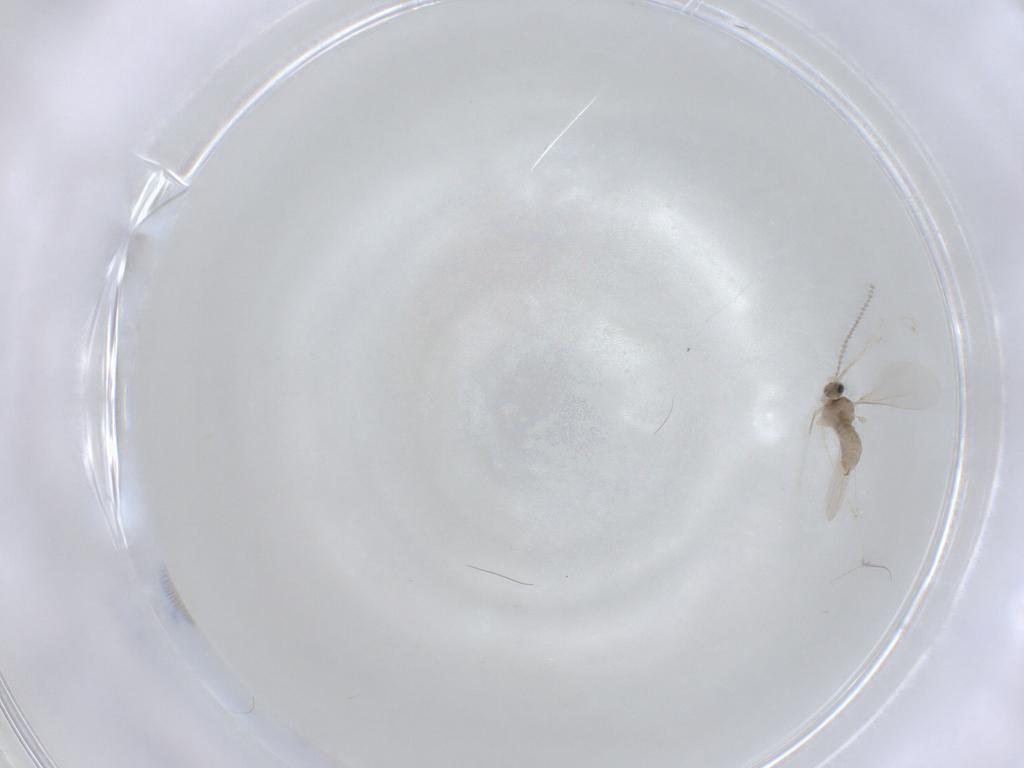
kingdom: Animalia
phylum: Arthropoda
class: Insecta
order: Diptera
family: Cecidomyiidae
